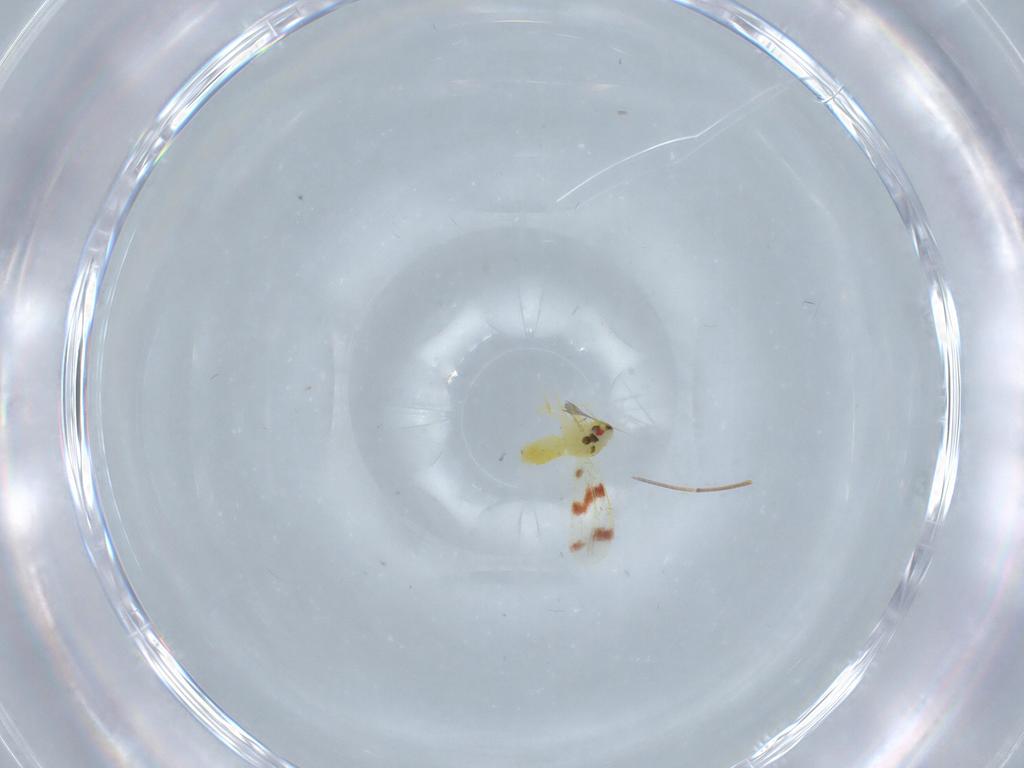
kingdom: Animalia
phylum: Arthropoda
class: Insecta
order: Hemiptera
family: Aleyrodidae
